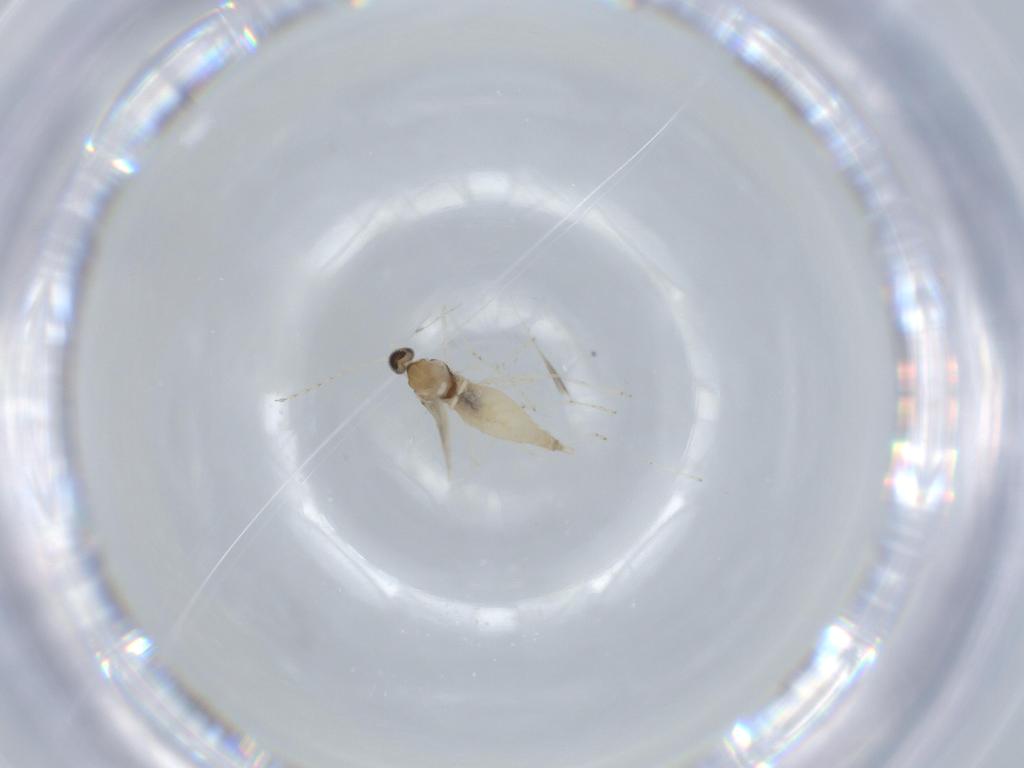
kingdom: Animalia
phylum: Arthropoda
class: Insecta
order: Diptera
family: Cecidomyiidae
